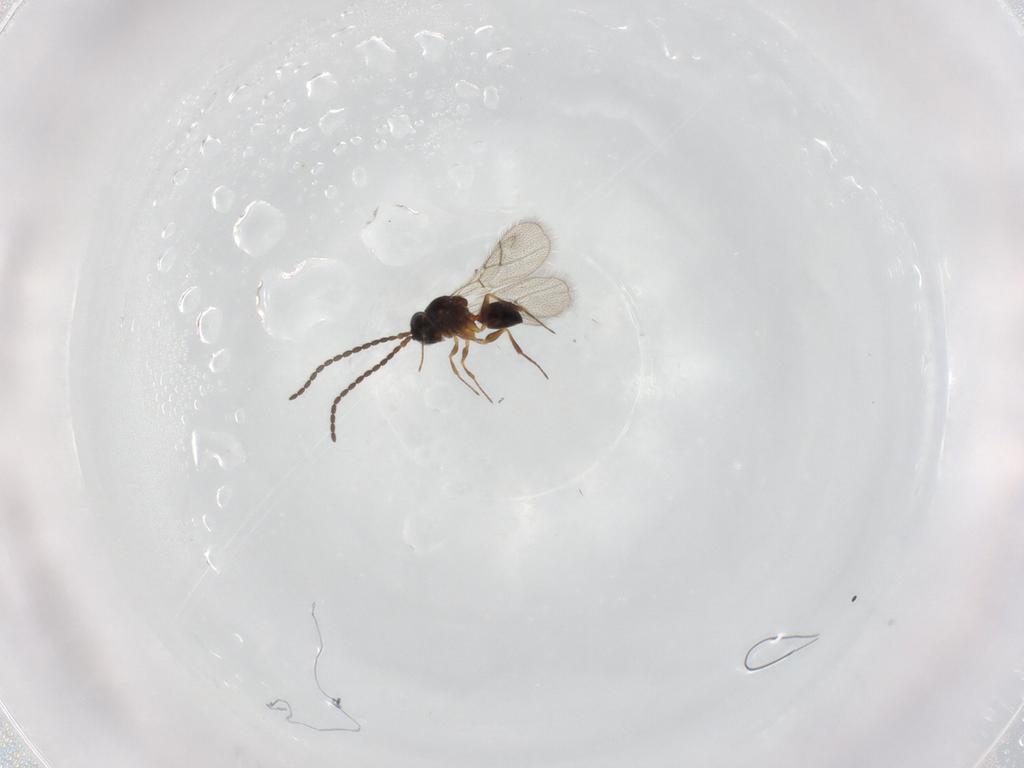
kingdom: Animalia
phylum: Arthropoda
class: Insecta
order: Hymenoptera
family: Figitidae
